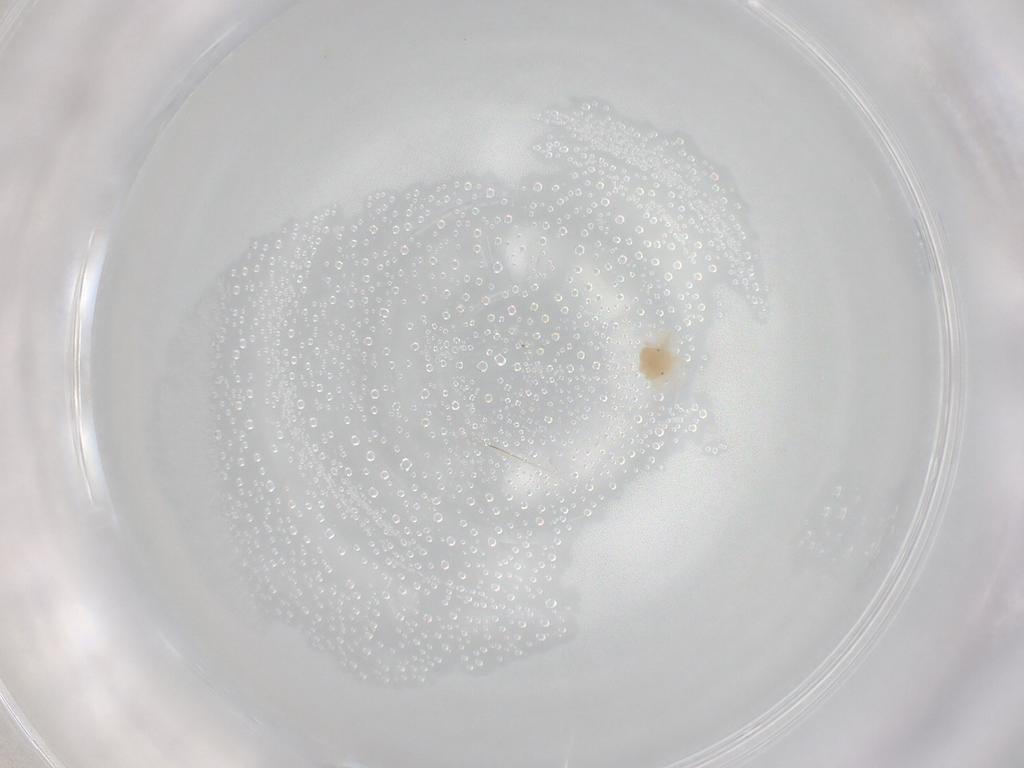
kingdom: Animalia
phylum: Arthropoda
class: Arachnida
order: Trombidiformes
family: Anystidae
